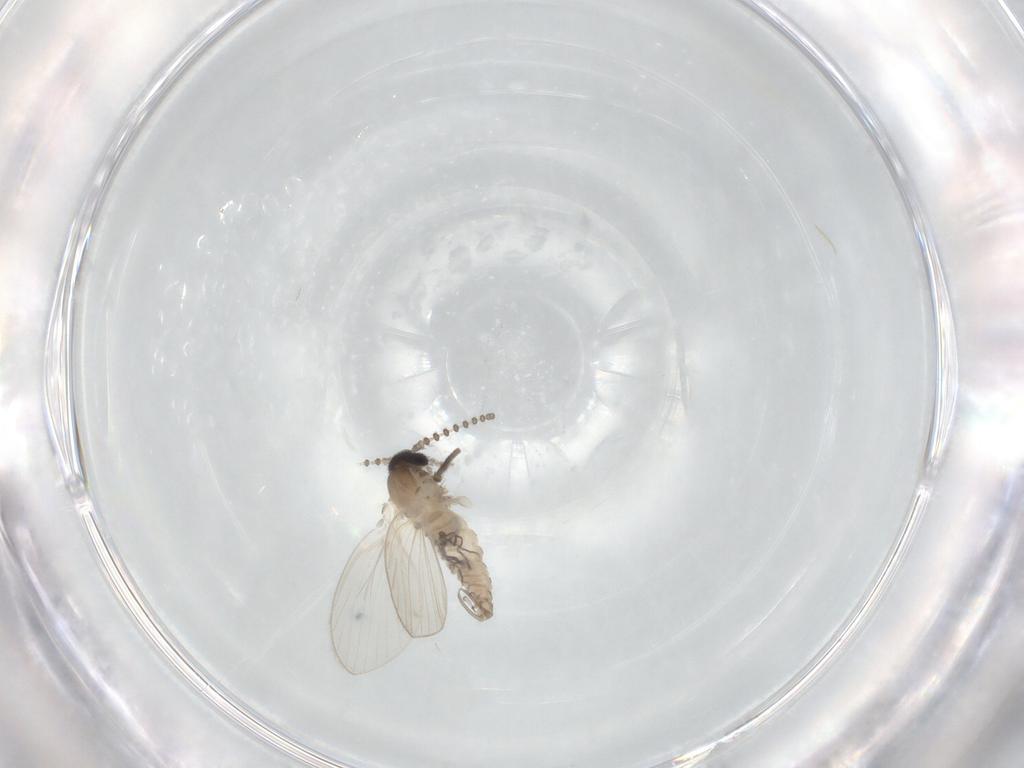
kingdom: Animalia
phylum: Arthropoda
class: Insecta
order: Diptera
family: Psychodidae
